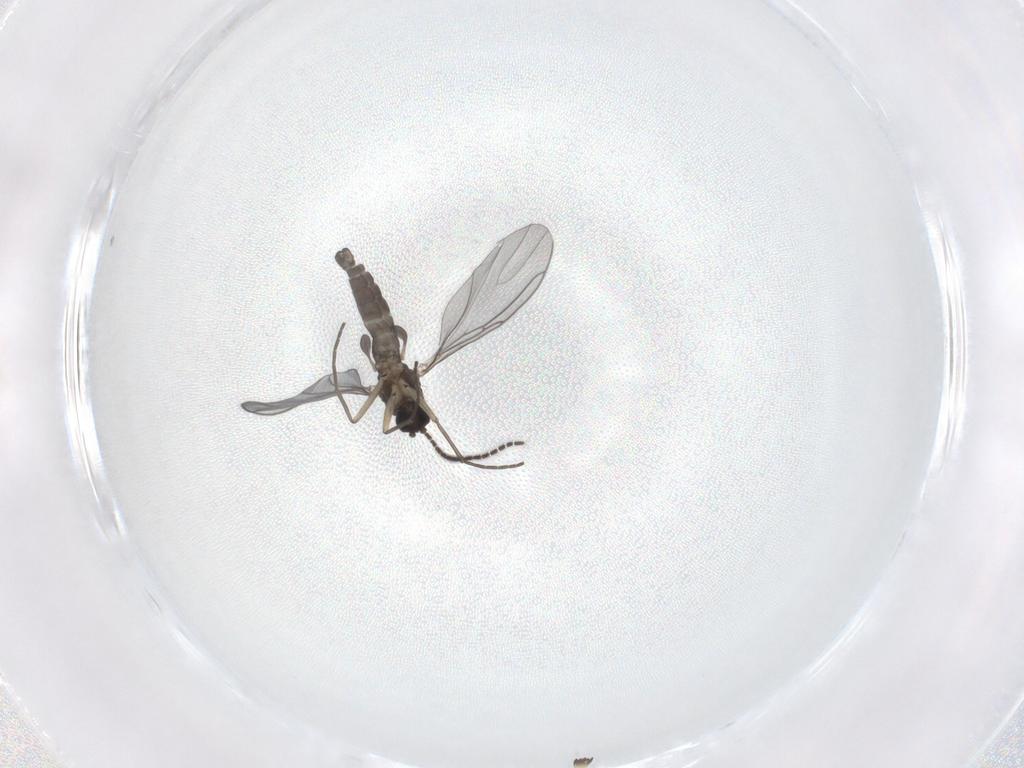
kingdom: Animalia
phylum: Arthropoda
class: Insecta
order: Diptera
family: Sciaridae
